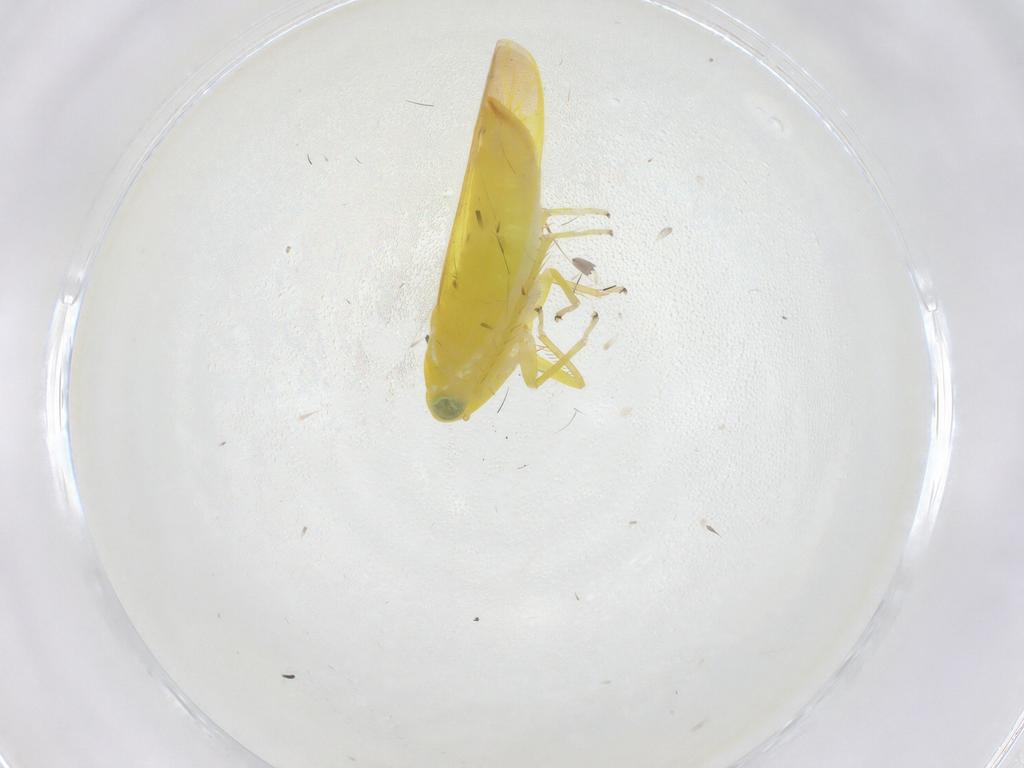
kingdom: Animalia
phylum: Arthropoda
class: Insecta
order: Hemiptera
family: Cicadellidae
